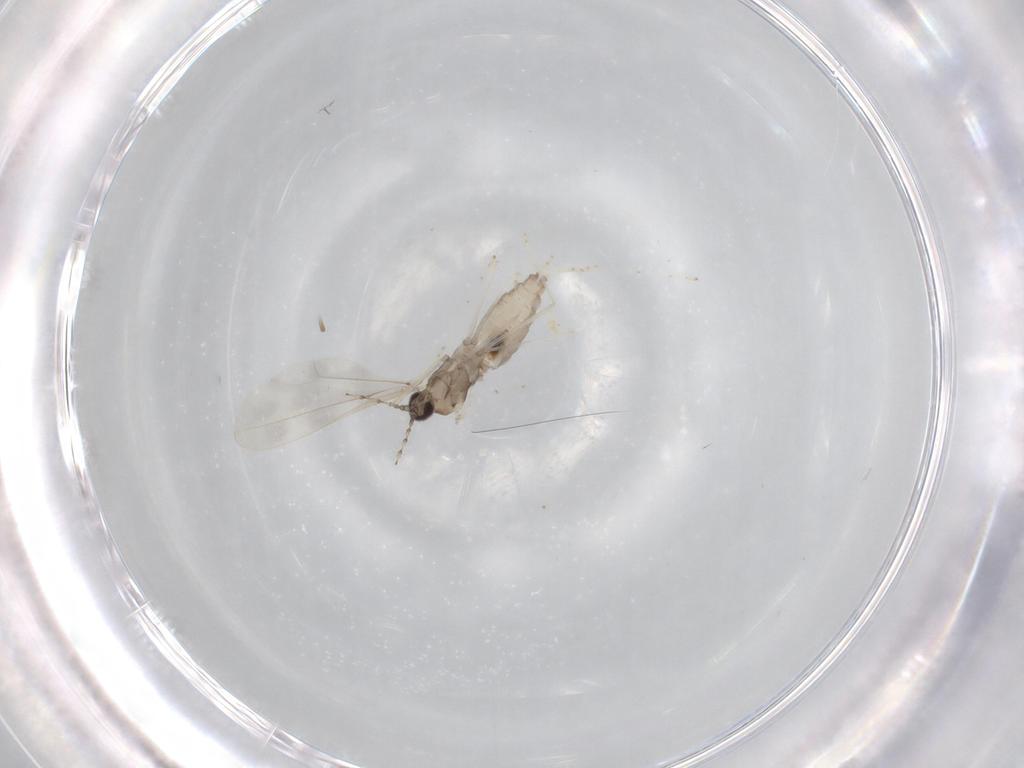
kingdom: Animalia
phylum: Arthropoda
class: Insecta
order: Diptera
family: Cecidomyiidae
